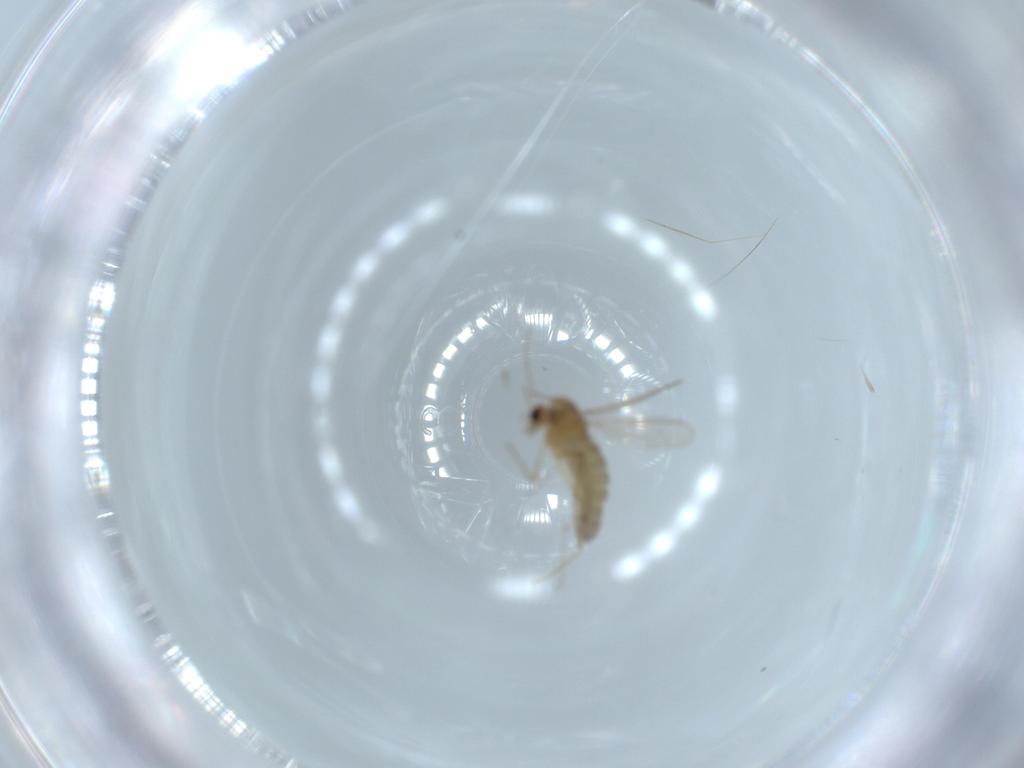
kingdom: Animalia
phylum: Arthropoda
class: Insecta
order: Diptera
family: Chironomidae
